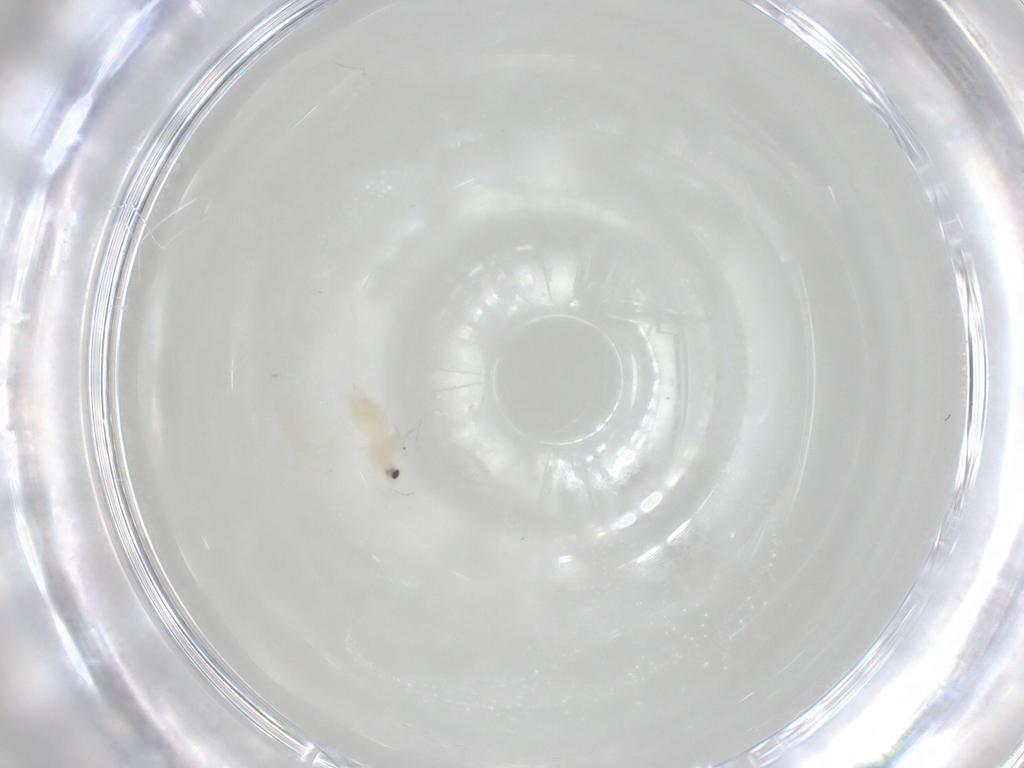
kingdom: Animalia
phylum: Arthropoda
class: Insecta
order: Hemiptera
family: Aleyrodidae
